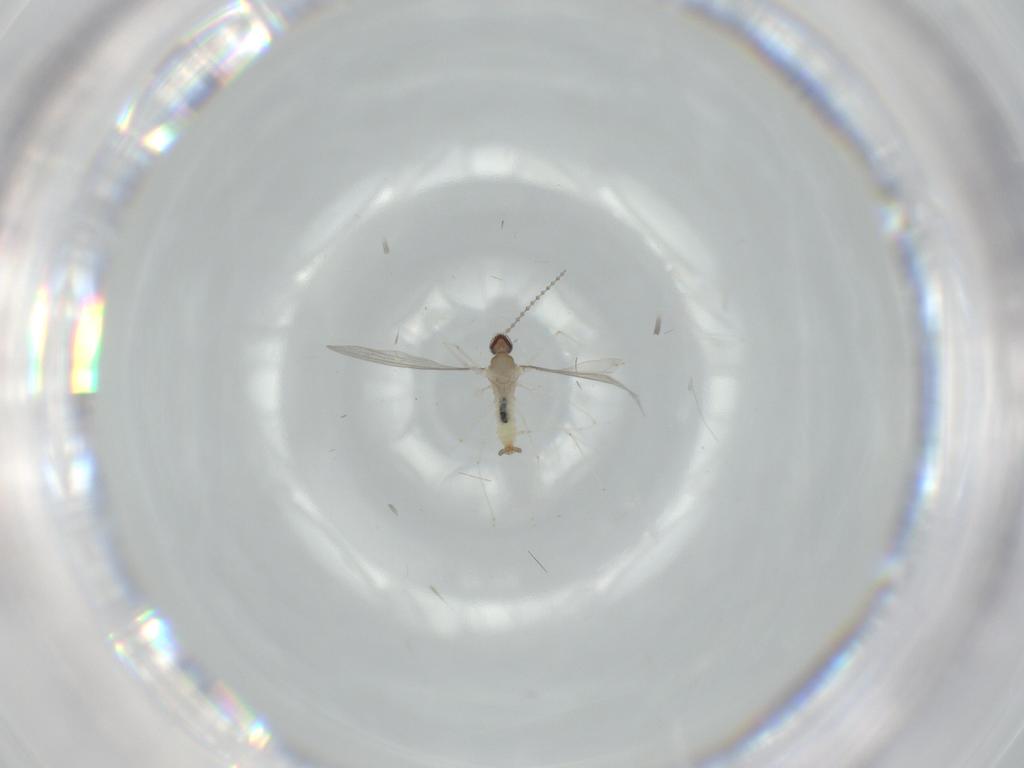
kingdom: Animalia
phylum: Arthropoda
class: Insecta
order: Diptera
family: Cecidomyiidae
